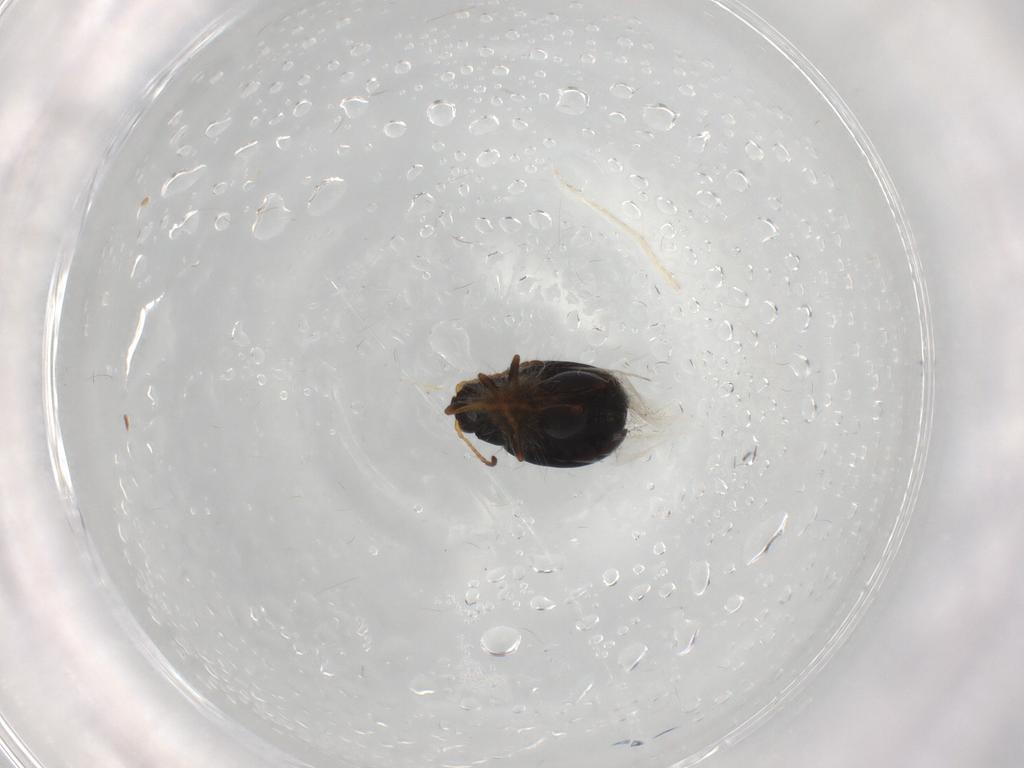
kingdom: Animalia
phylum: Arthropoda
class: Insecta
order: Coleoptera
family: Chrysomelidae
